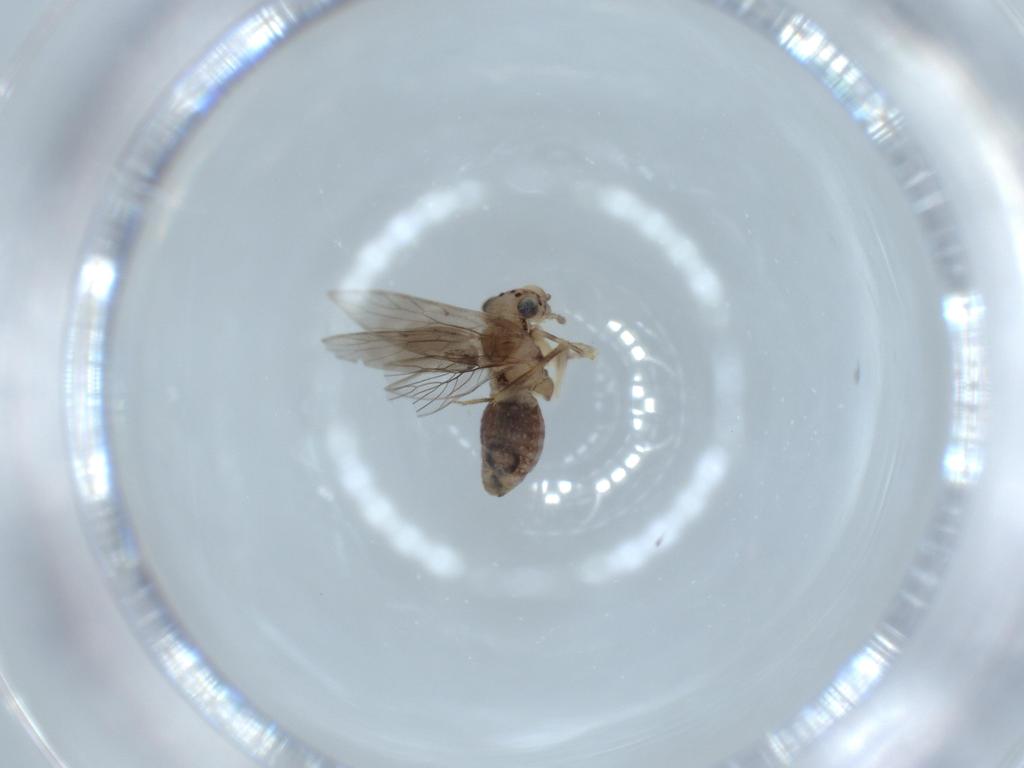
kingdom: Animalia
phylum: Arthropoda
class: Insecta
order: Psocodea
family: Lepidopsocidae
